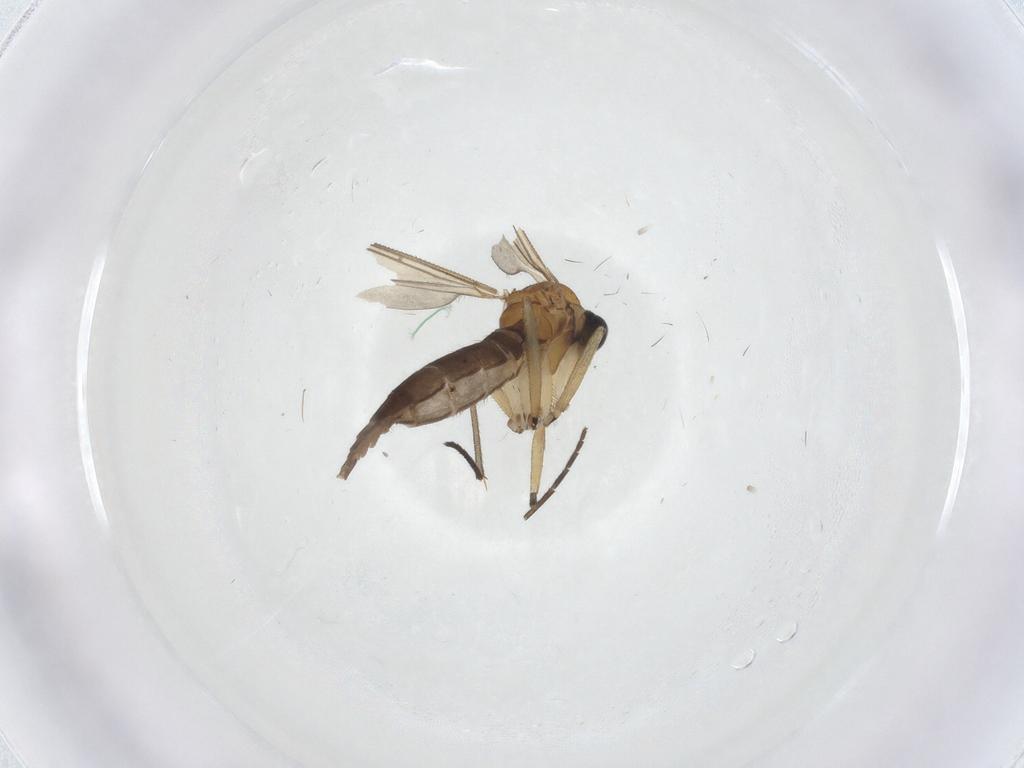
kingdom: Animalia
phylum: Arthropoda
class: Insecta
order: Diptera
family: Sciaridae
